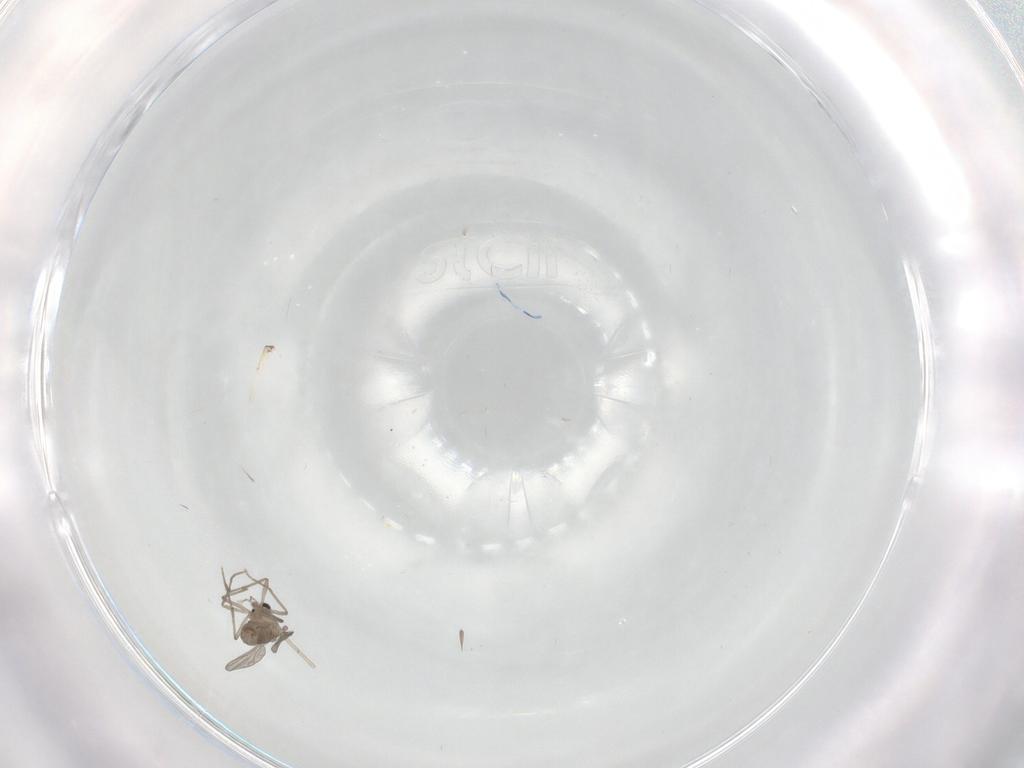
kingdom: Animalia
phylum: Arthropoda
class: Insecta
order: Diptera
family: Chironomidae
